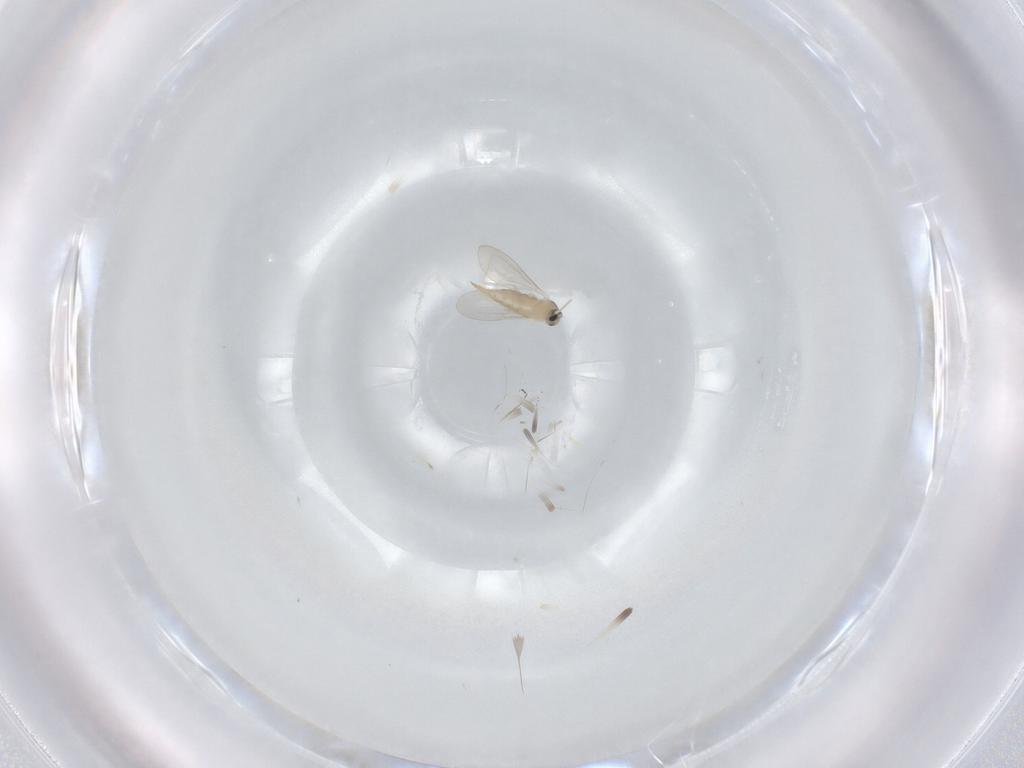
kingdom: Animalia
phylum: Arthropoda
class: Insecta
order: Diptera
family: Cecidomyiidae
